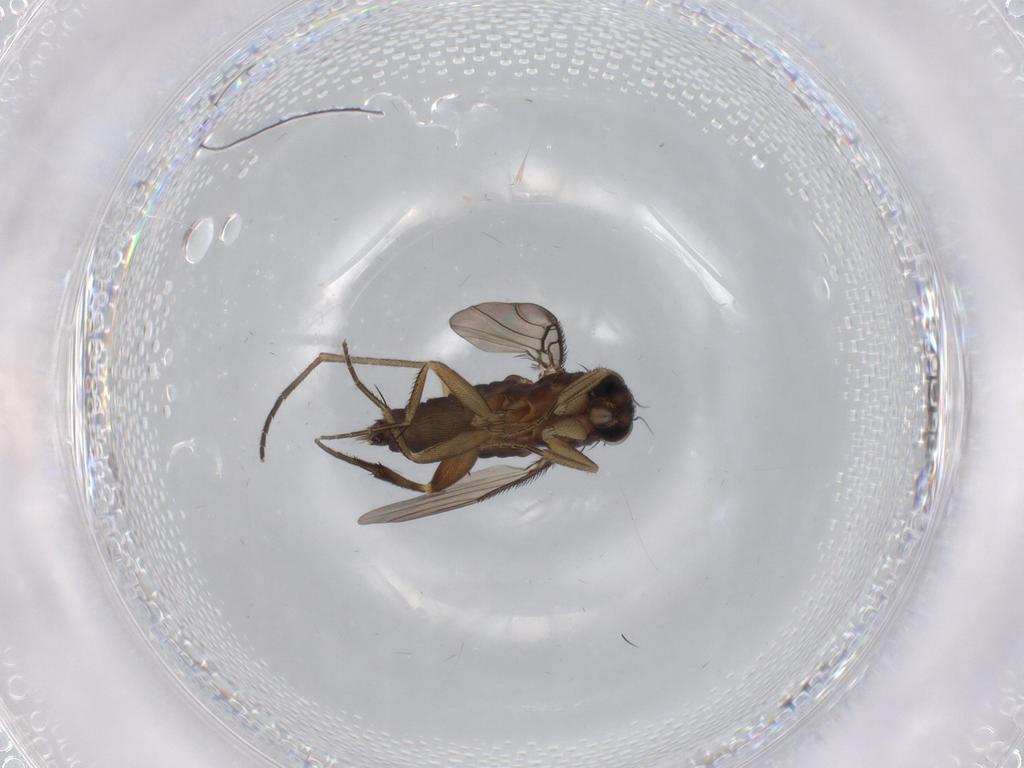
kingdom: Animalia
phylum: Arthropoda
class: Insecta
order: Diptera
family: Phoridae
